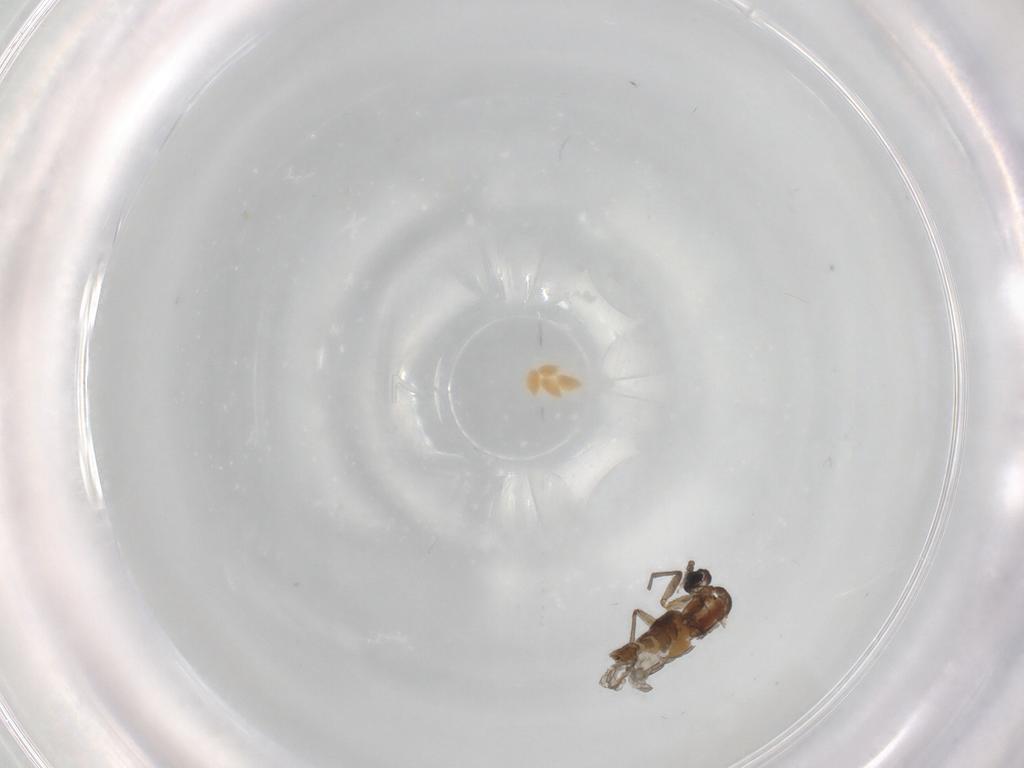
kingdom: Animalia
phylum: Arthropoda
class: Insecta
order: Diptera
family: Sciaridae
